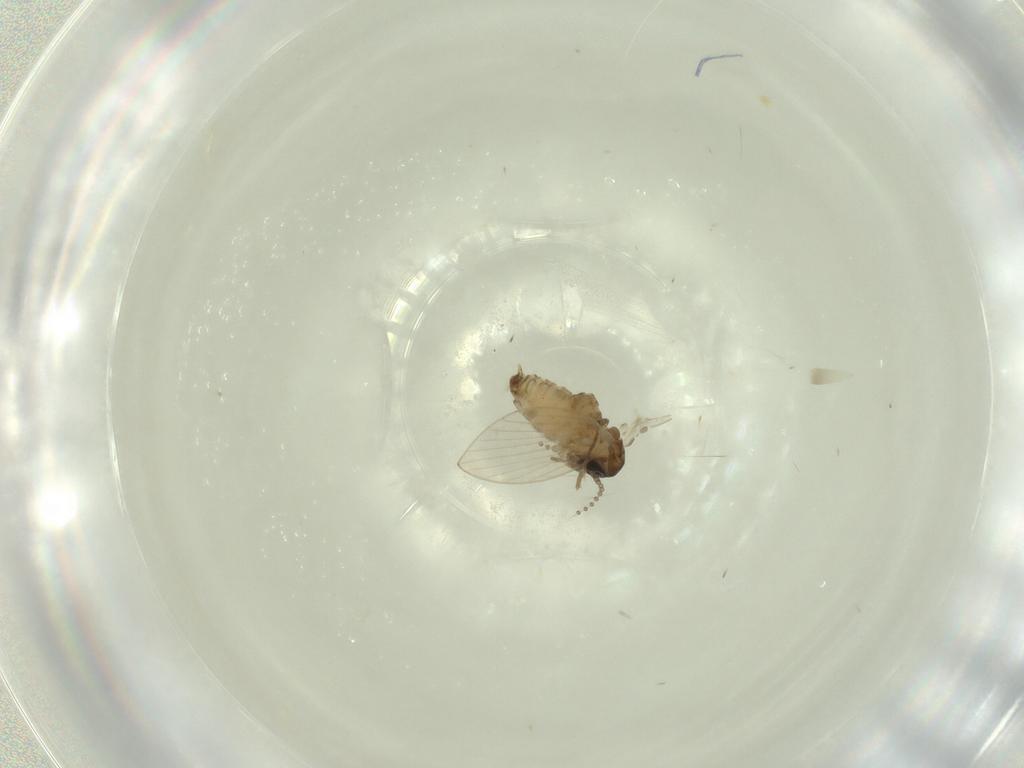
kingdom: Animalia
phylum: Arthropoda
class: Insecta
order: Diptera
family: Psychodidae
